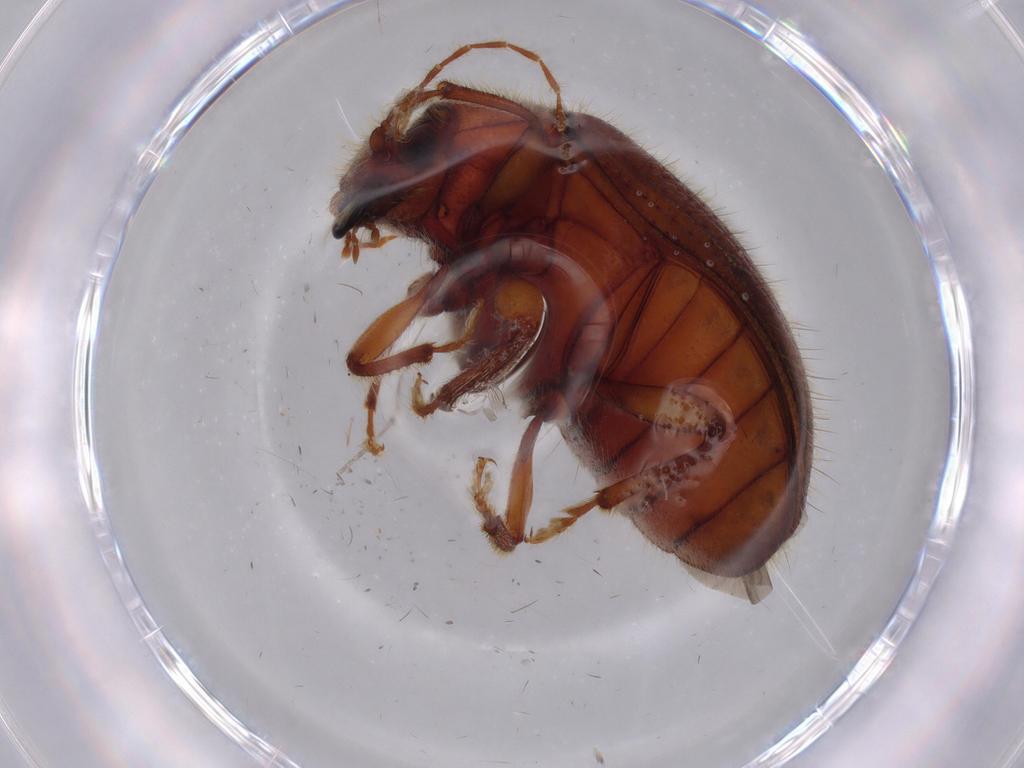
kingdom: Animalia
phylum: Arthropoda
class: Insecta
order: Coleoptera
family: Artematopodidae
